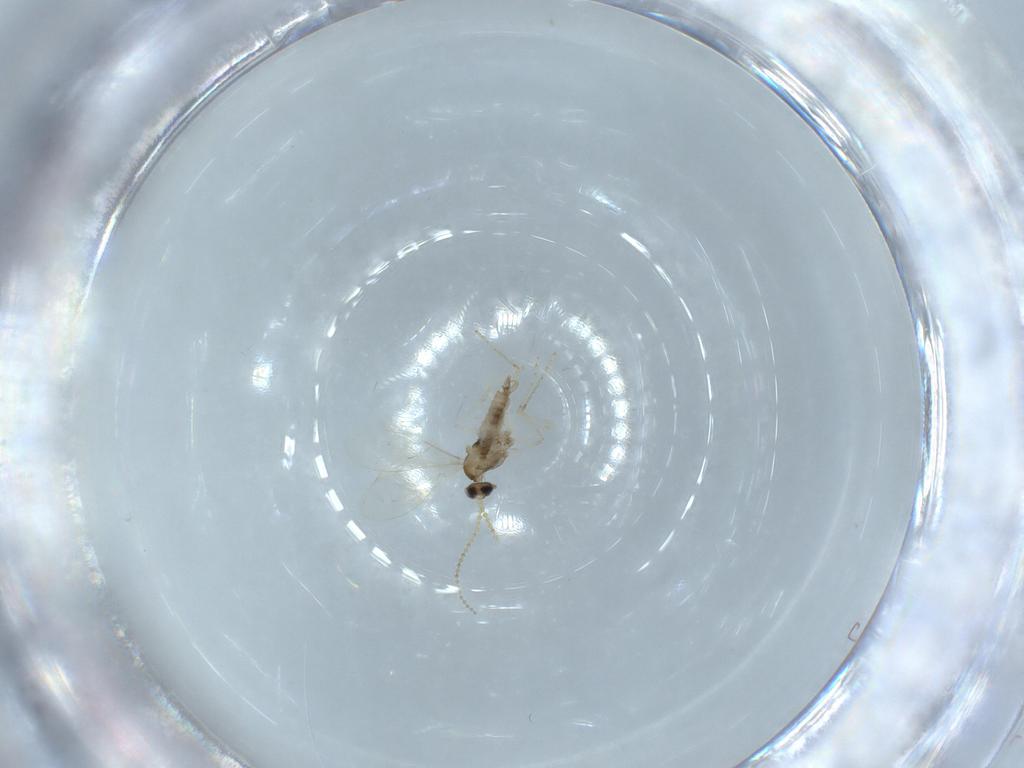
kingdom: Animalia
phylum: Arthropoda
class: Insecta
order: Diptera
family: Cecidomyiidae
